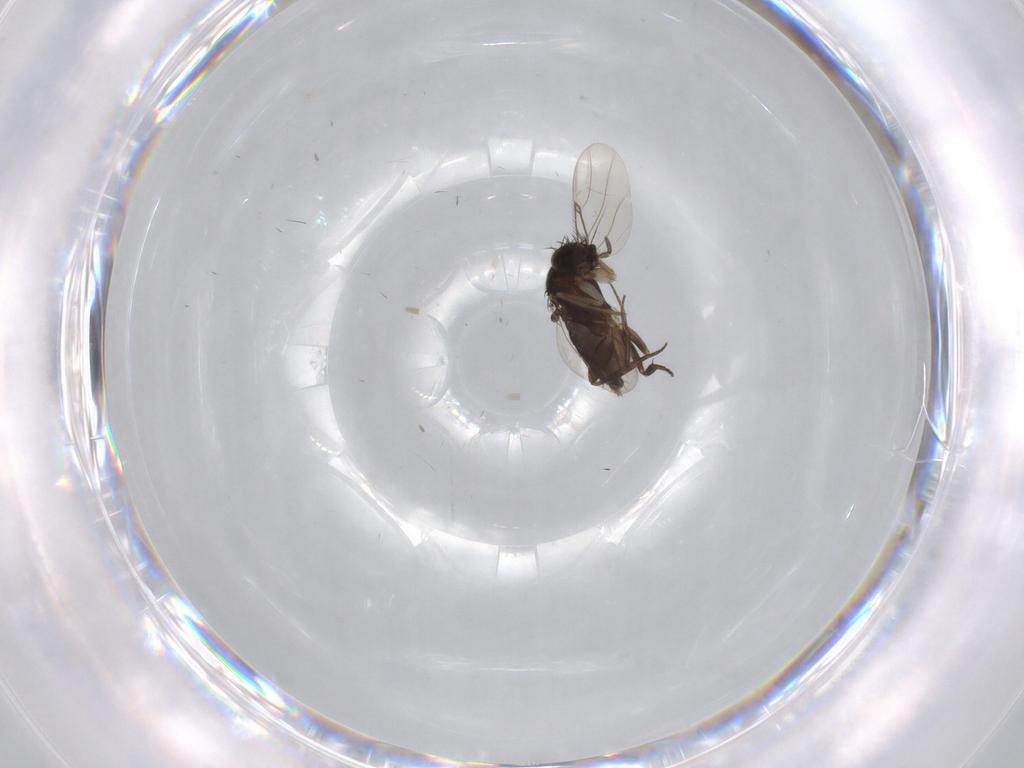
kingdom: Animalia
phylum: Arthropoda
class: Insecta
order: Diptera
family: Phoridae
